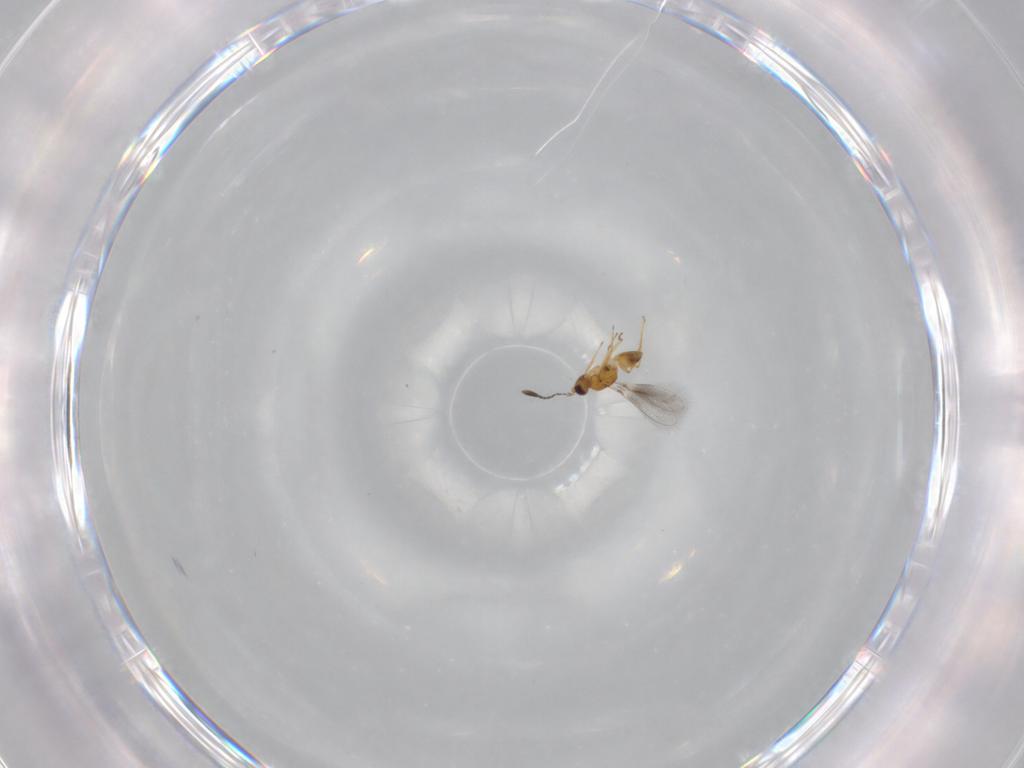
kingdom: Animalia
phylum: Arthropoda
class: Insecta
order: Hymenoptera
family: Mymaridae
